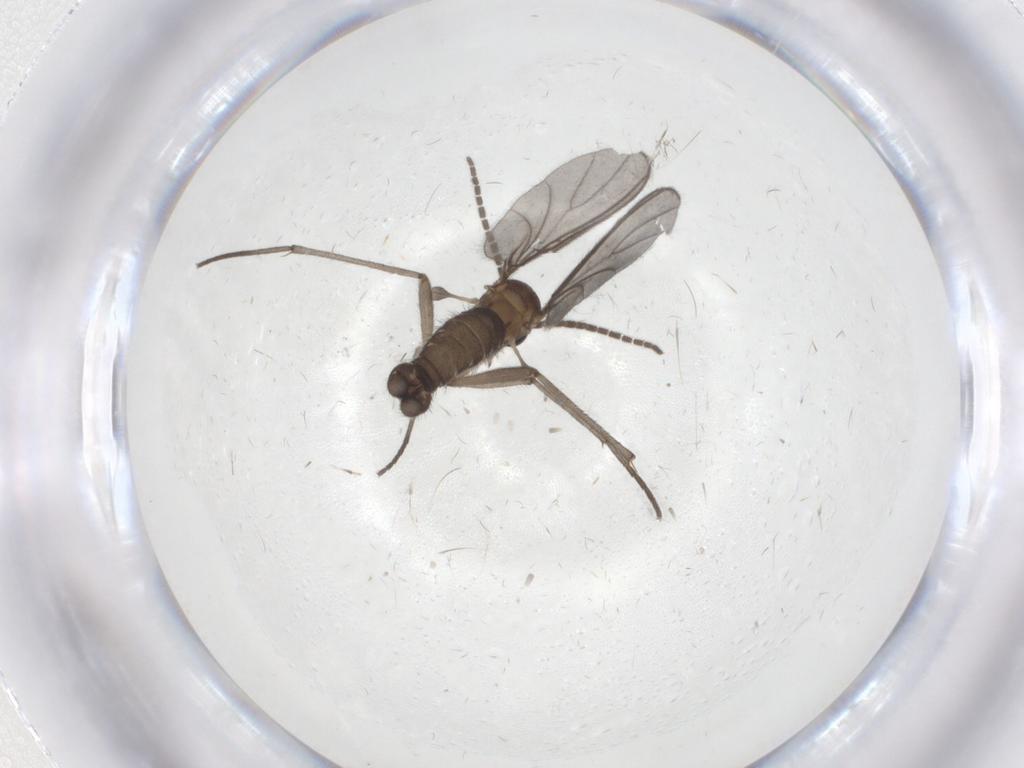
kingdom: Animalia
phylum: Arthropoda
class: Insecta
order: Diptera
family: Sciaridae
